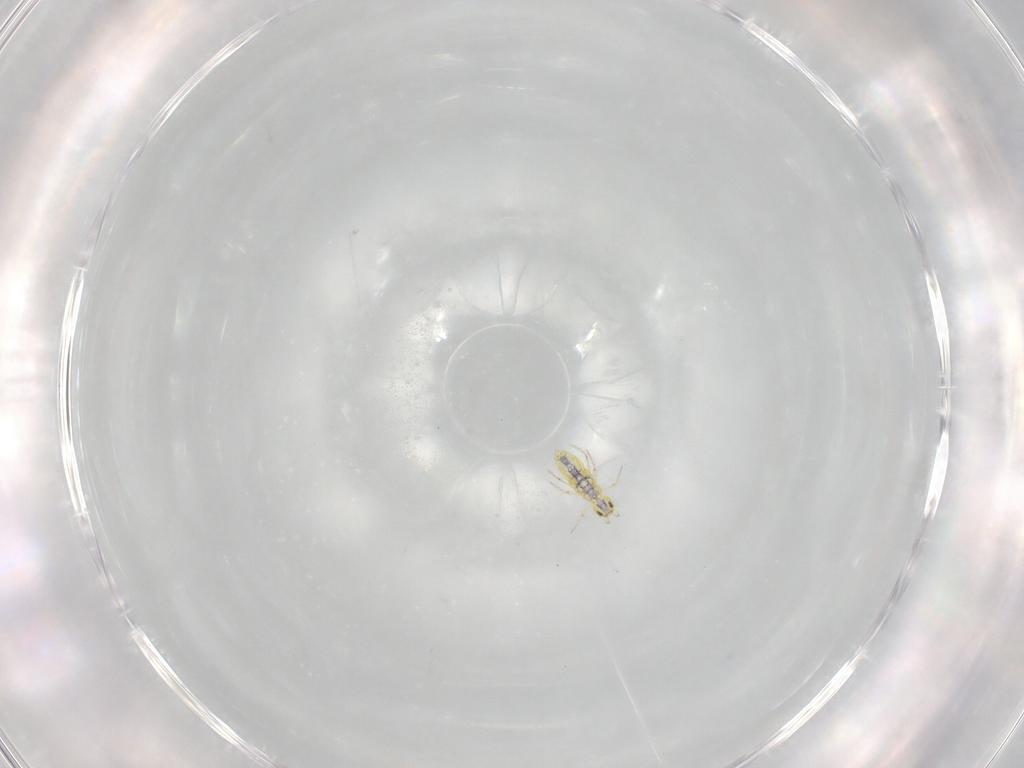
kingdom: Animalia
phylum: Arthropoda
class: Collembola
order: Entomobryomorpha
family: Entomobryidae
